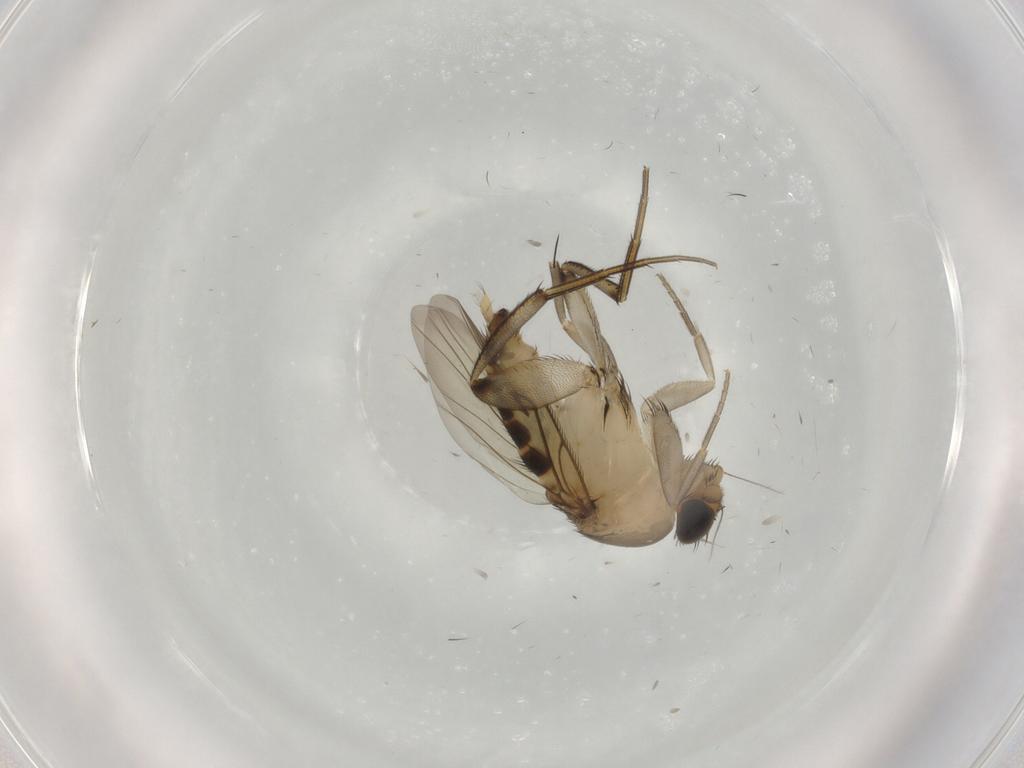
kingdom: Animalia
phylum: Arthropoda
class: Insecta
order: Diptera
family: Phoridae
